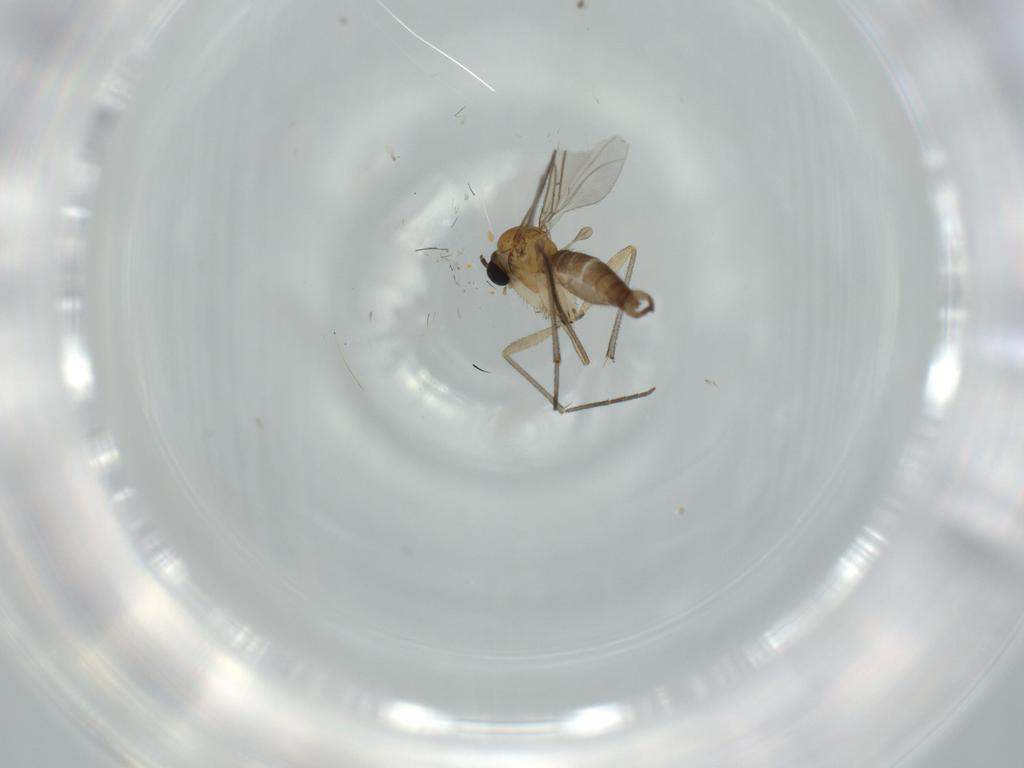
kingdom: Animalia
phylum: Arthropoda
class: Insecta
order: Diptera
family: Sciaridae
